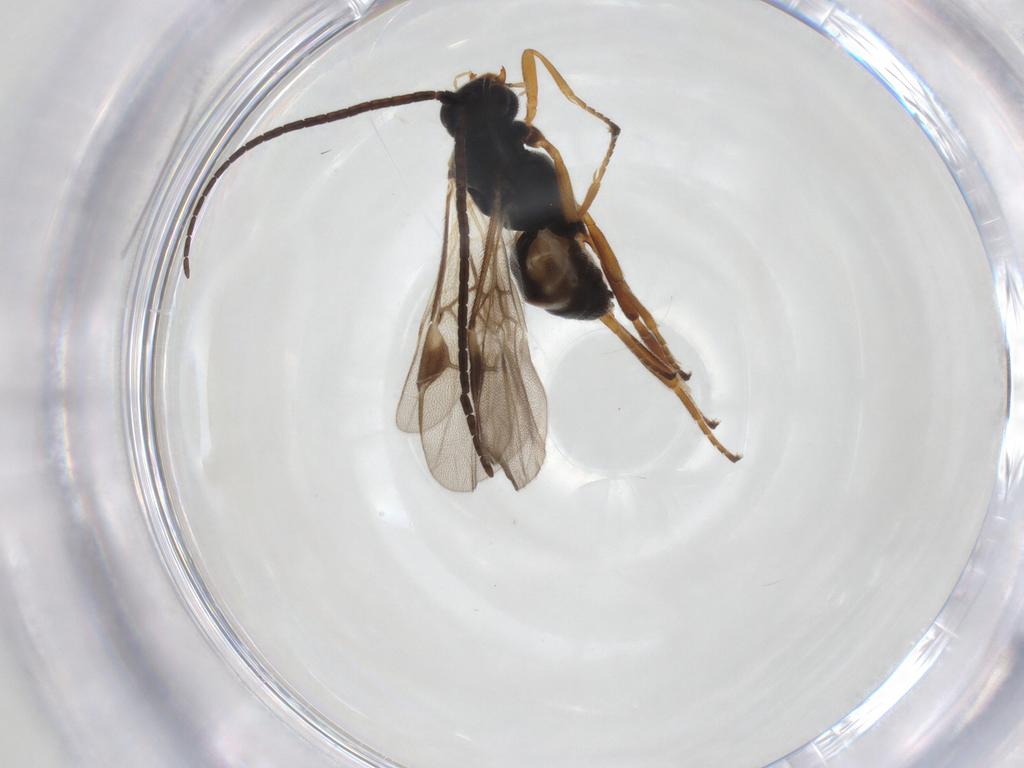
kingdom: Animalia
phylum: Arthropoda
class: Insecta
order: Hymenoptera
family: Braconidae
